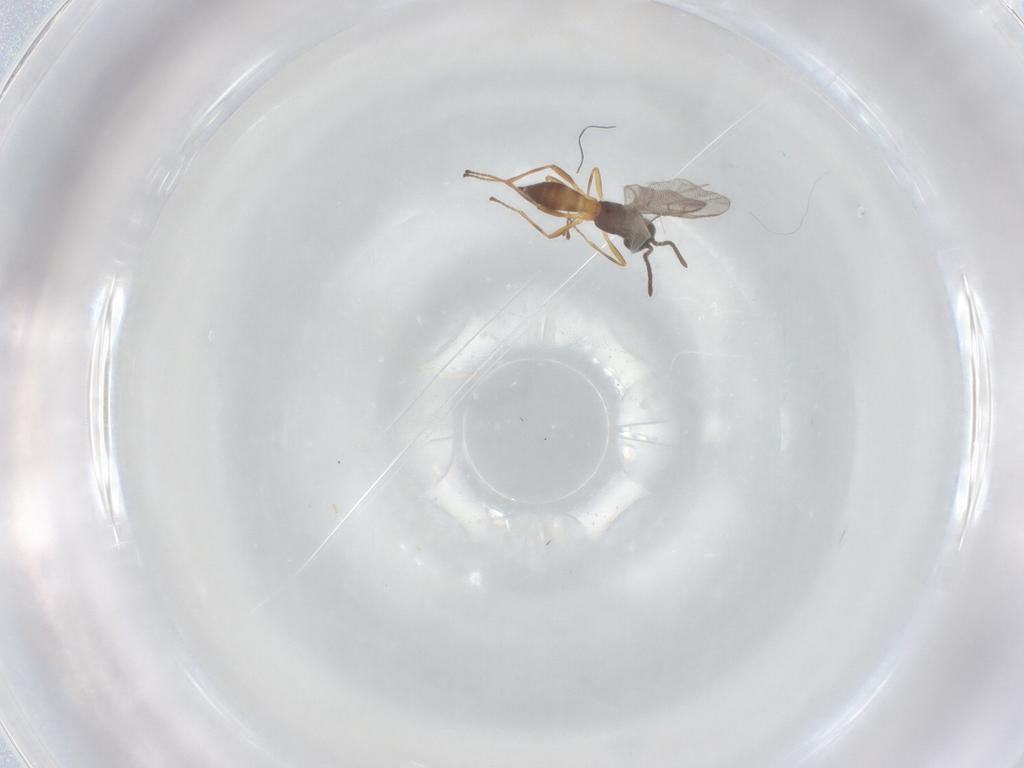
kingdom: Animalia
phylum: Arthropoda
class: Insecta
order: Hymenoptera
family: Braconidae
